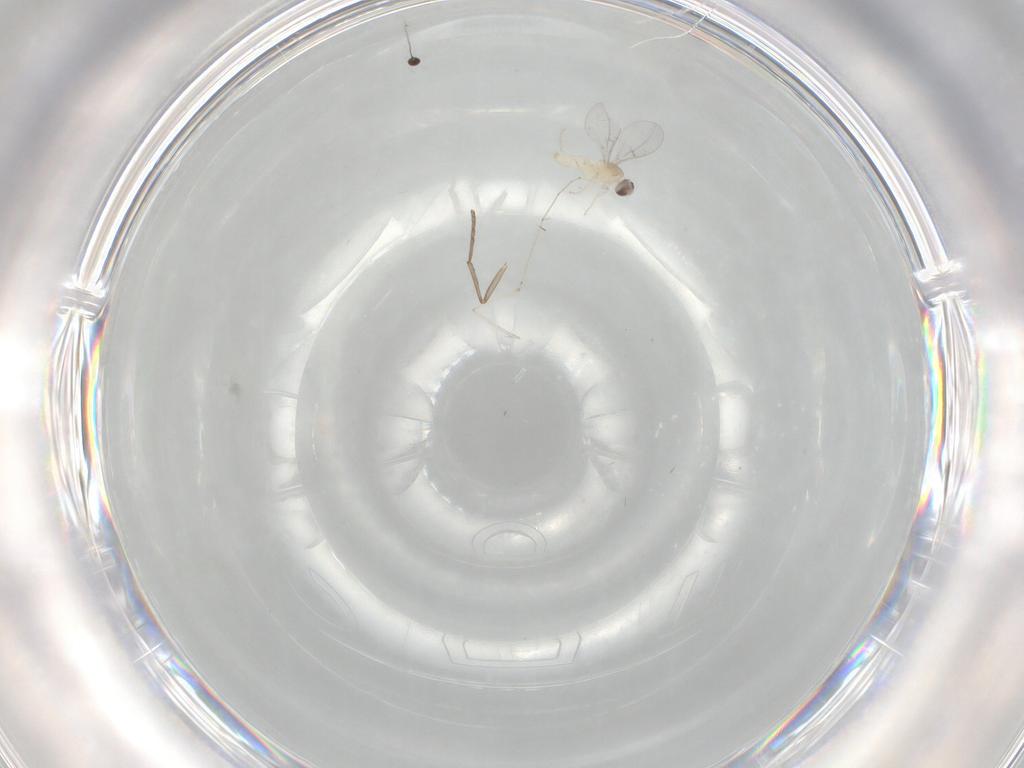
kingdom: Animalia
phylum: Arthropoda
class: Insecta
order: Diptera
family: Cecidomyiidae
